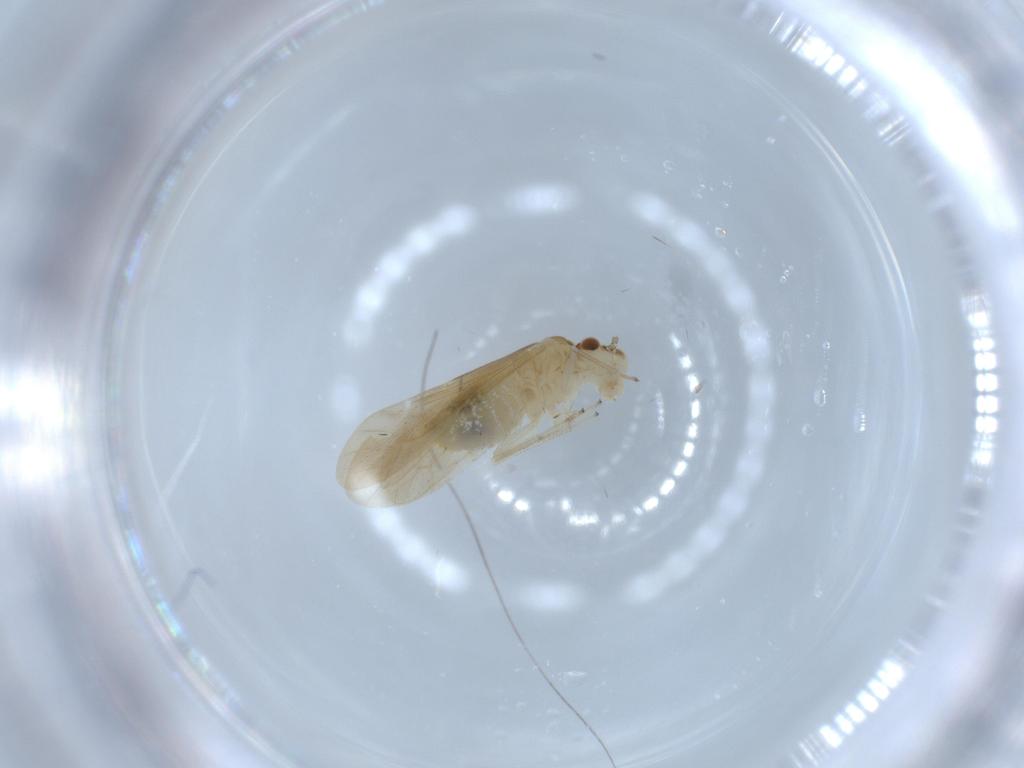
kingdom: Animalia
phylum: Arthropoda
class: Insecta
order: Psocodea
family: Caeciliusidae
